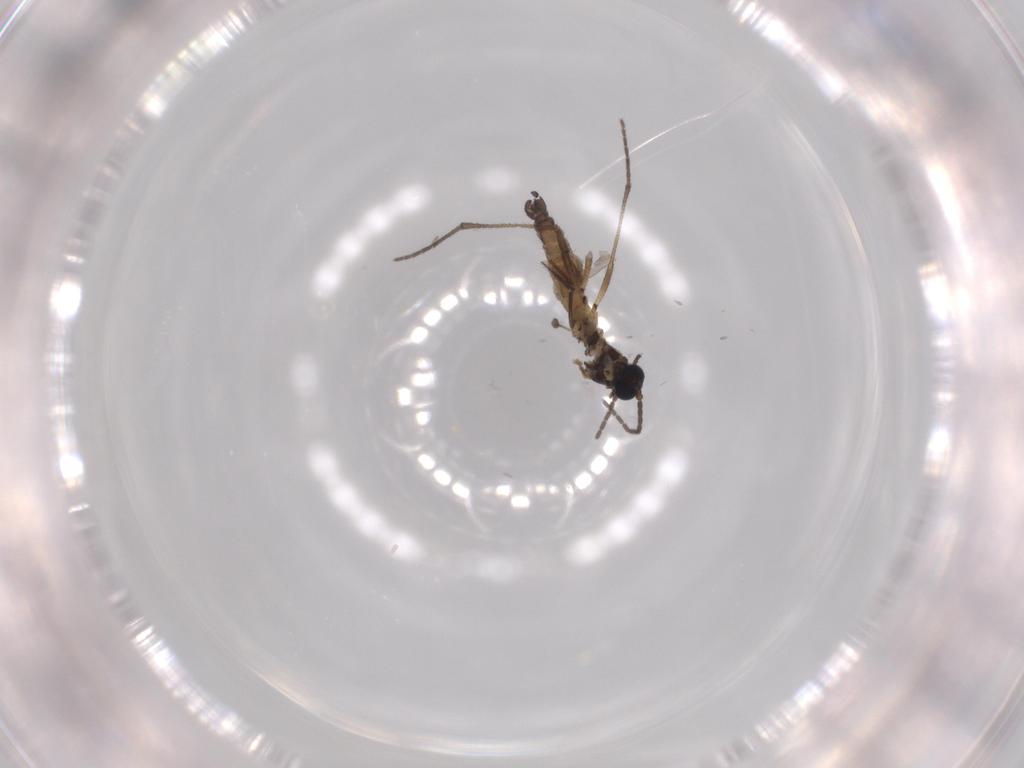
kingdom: Animalia
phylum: Arthropoda
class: Insecta
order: Diptera
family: Sciaridae
